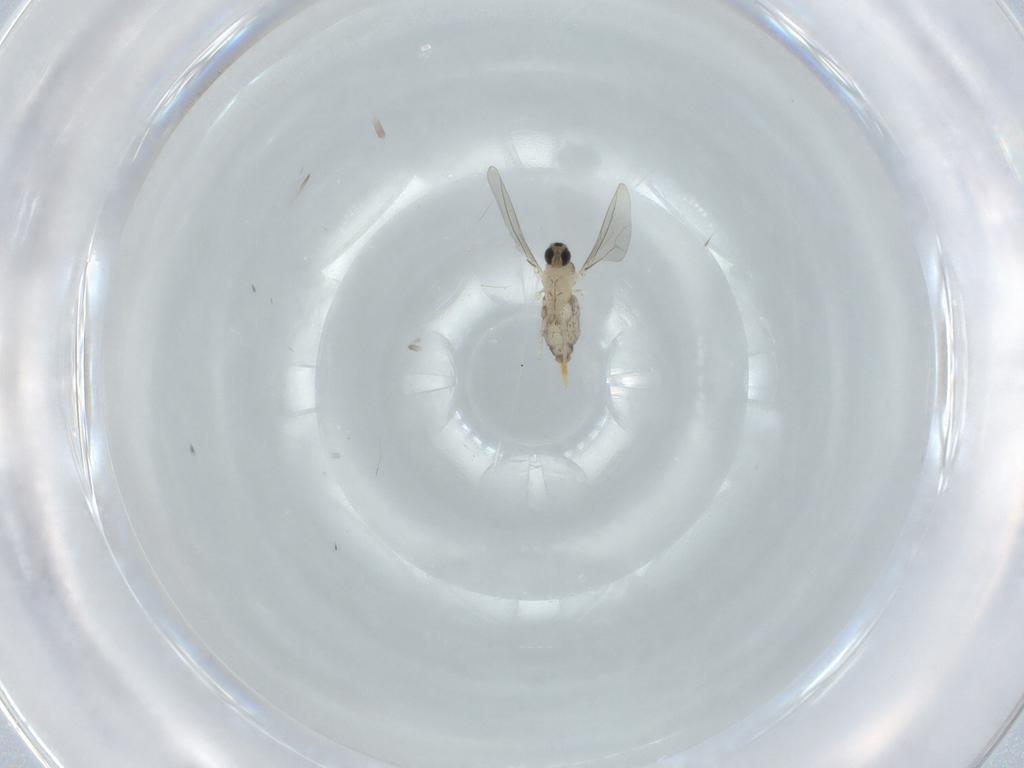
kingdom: Animalia
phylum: Arthropoda
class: Insecta
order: Diptera
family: Cecidomyiidae
